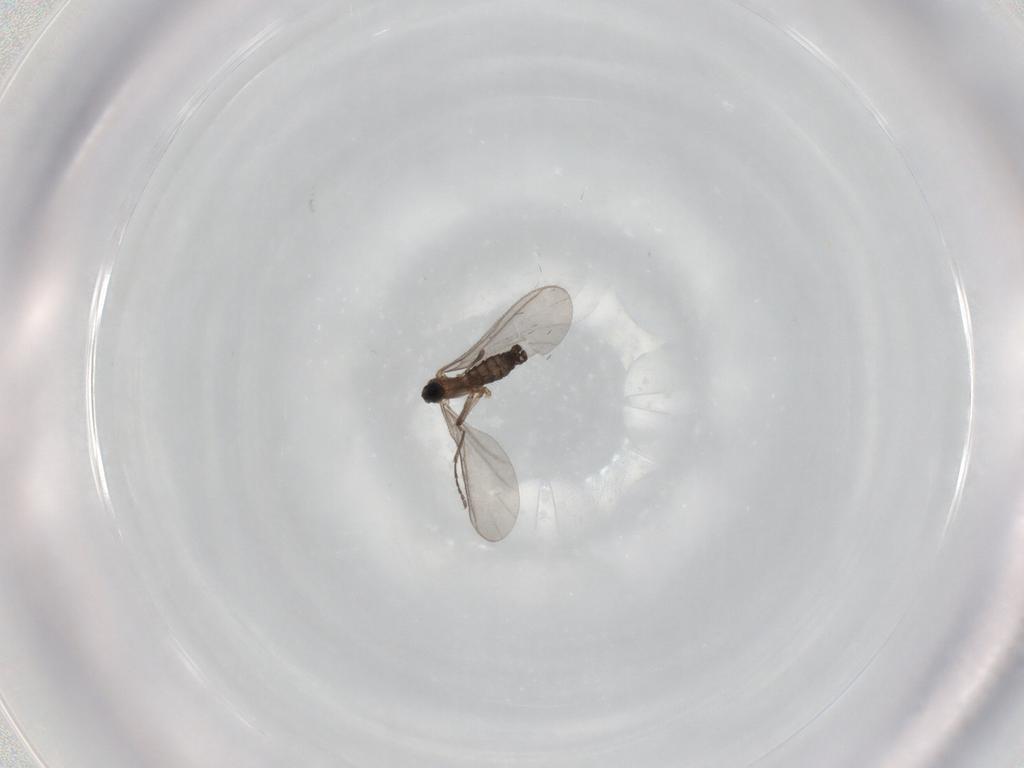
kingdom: Animalia
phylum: Arthropoda
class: Insecta
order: Diptera
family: Sciaridae
